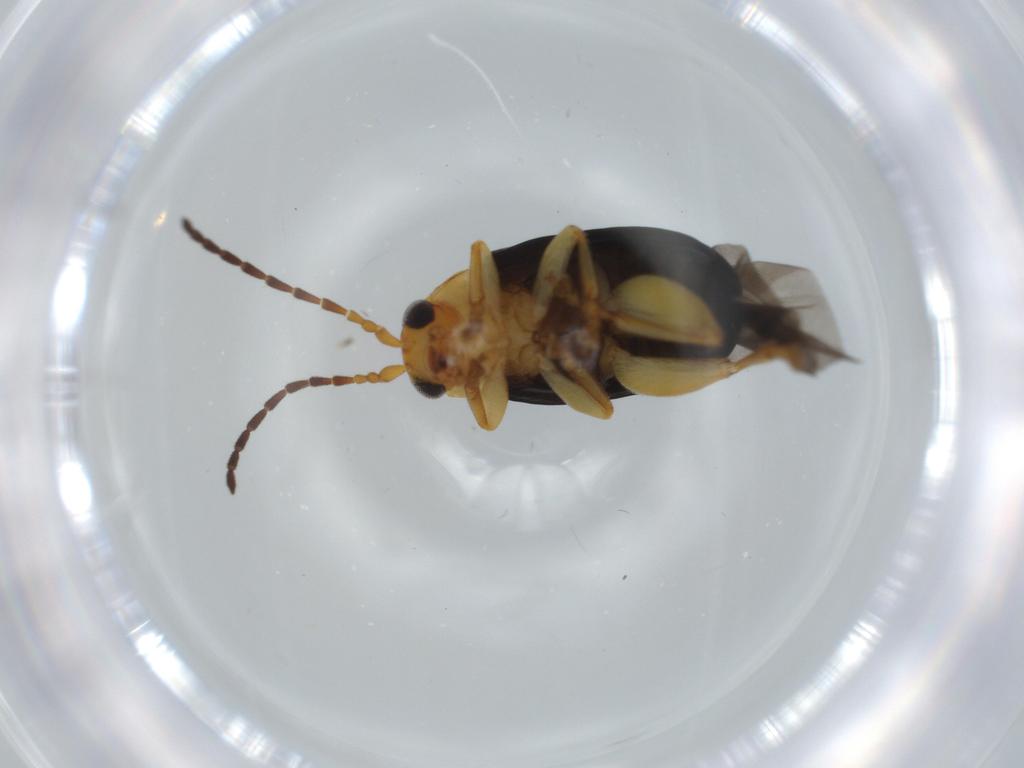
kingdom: Animalia
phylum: Arthropoda
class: Insecta
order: Coleoptera
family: Chrysomelidae
